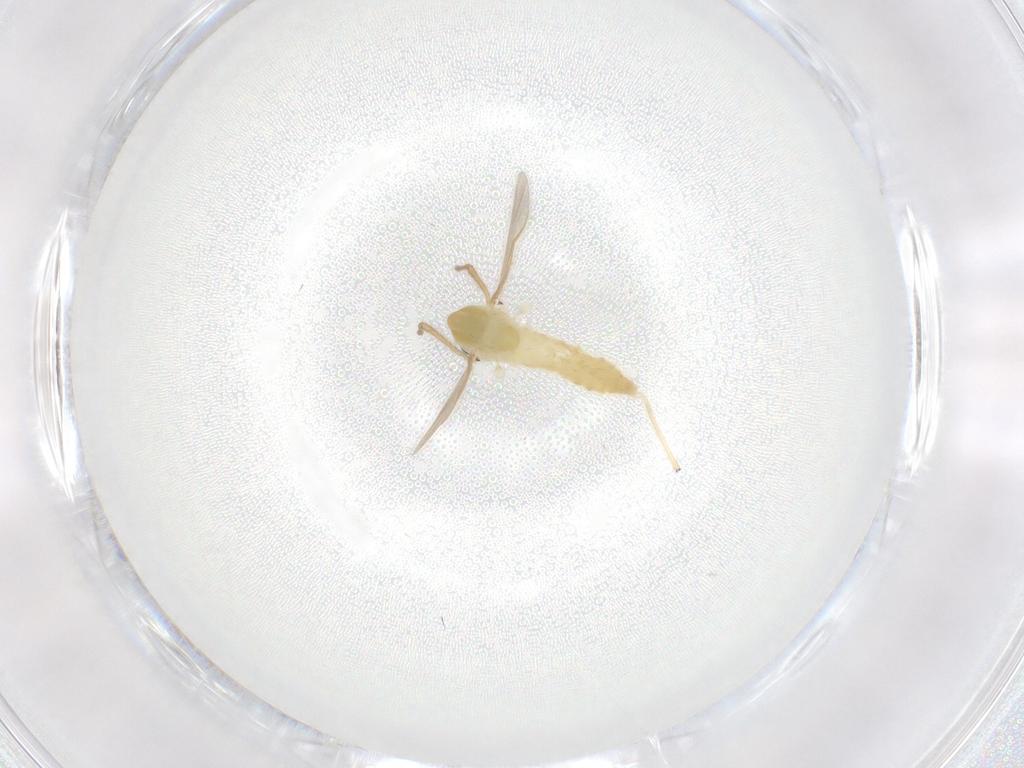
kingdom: Animalia
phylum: Arthropoda
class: Insecta
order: Diptera
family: Chironomidae
